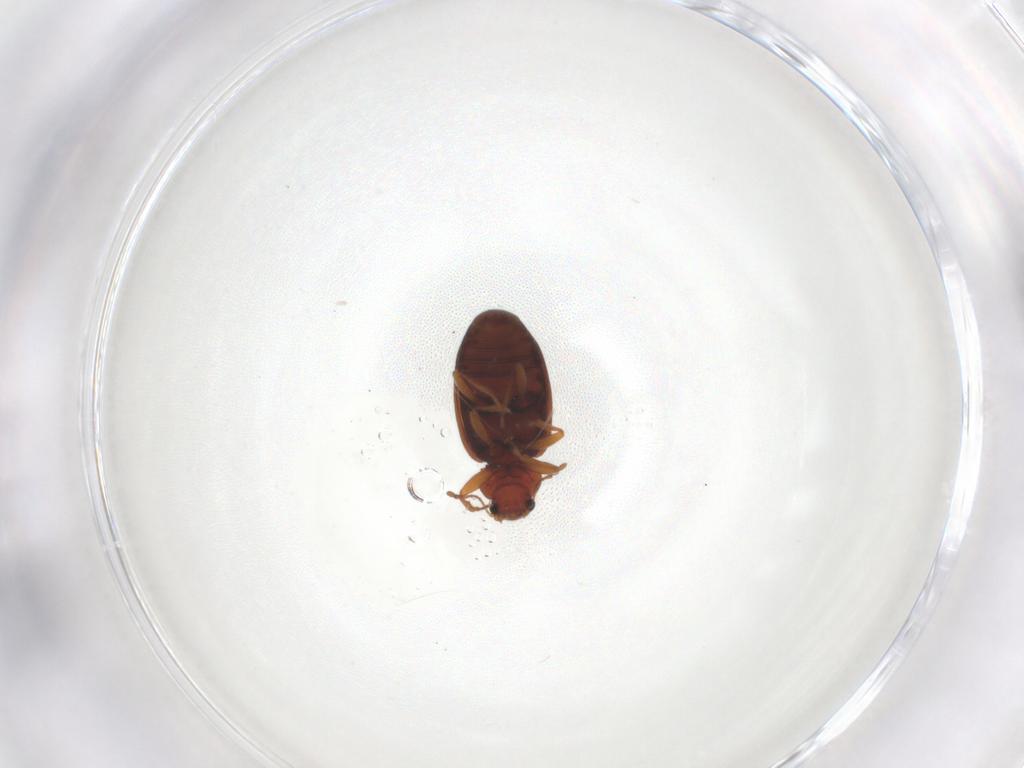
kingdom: Animalia
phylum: Arthropoda
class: Insecta
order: Coleoptera
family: Latridiidae
